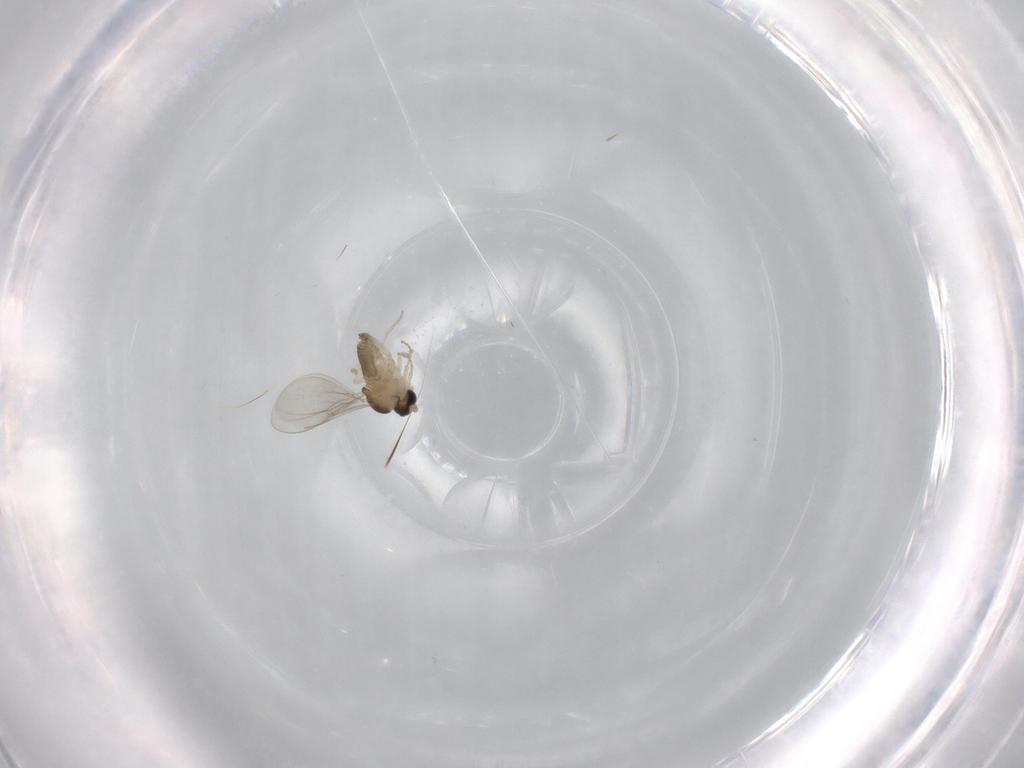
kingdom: Animalia
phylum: Arthropoda
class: Insecta
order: Diptera
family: Cecidomyiidae
